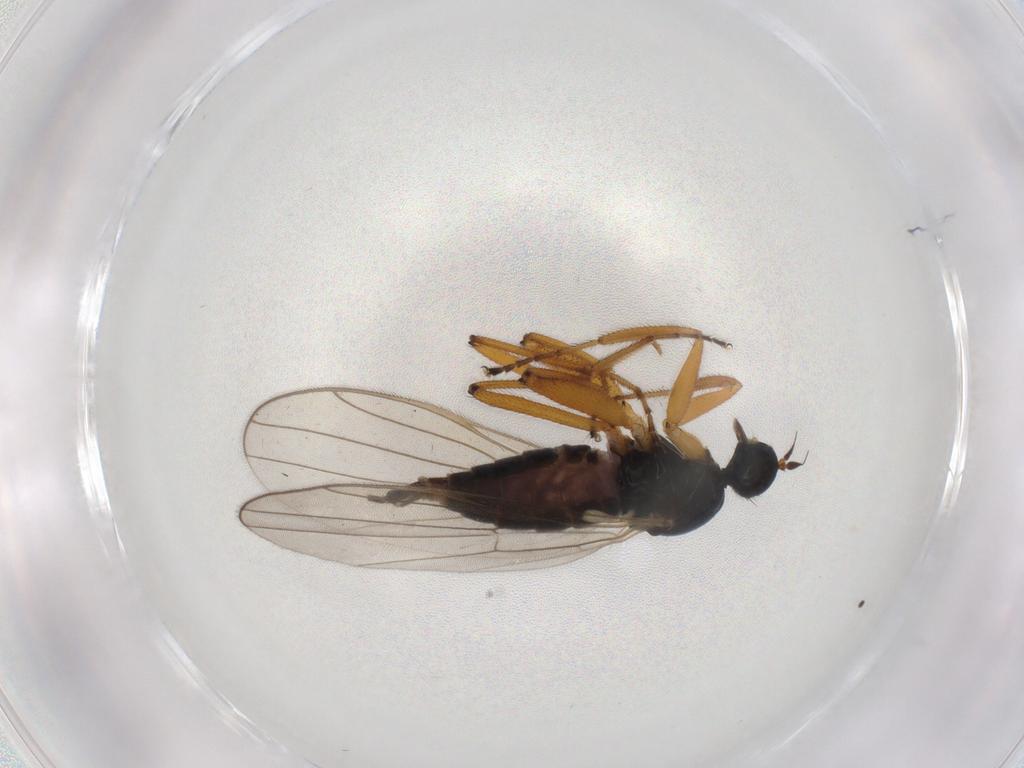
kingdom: Animalia
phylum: Arthropoda
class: Insecta
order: Diptera
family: Hybotidae
